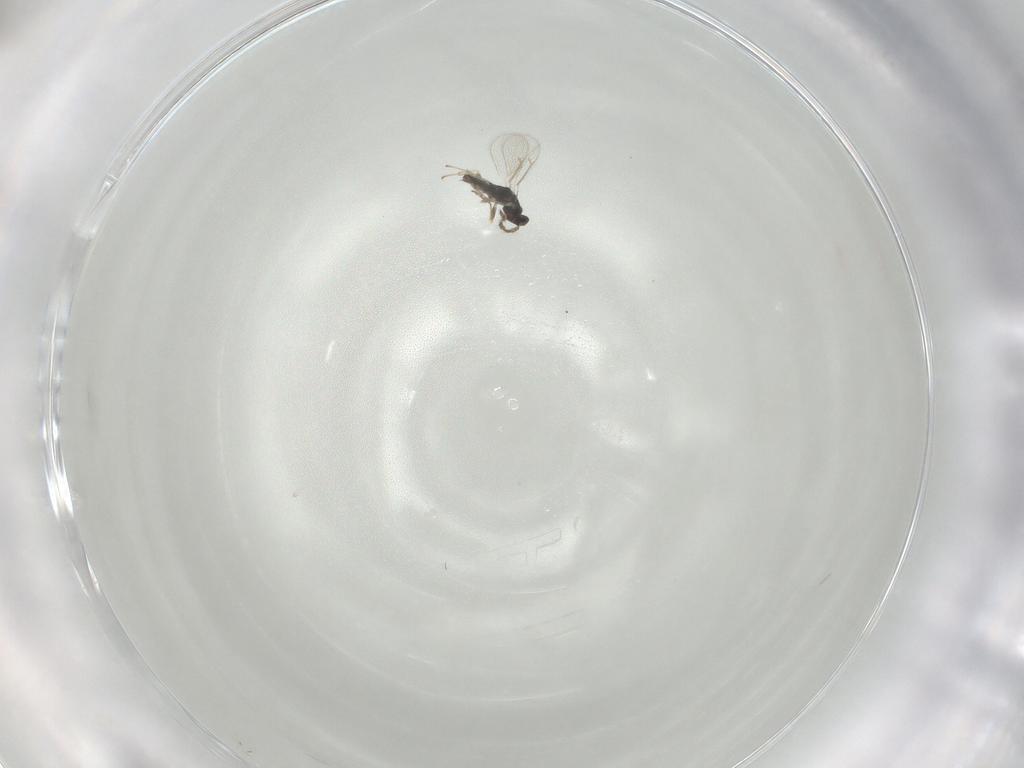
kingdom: Animalia
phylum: Arthropoda
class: Insecta
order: Hymenoptera
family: Eulophidae
